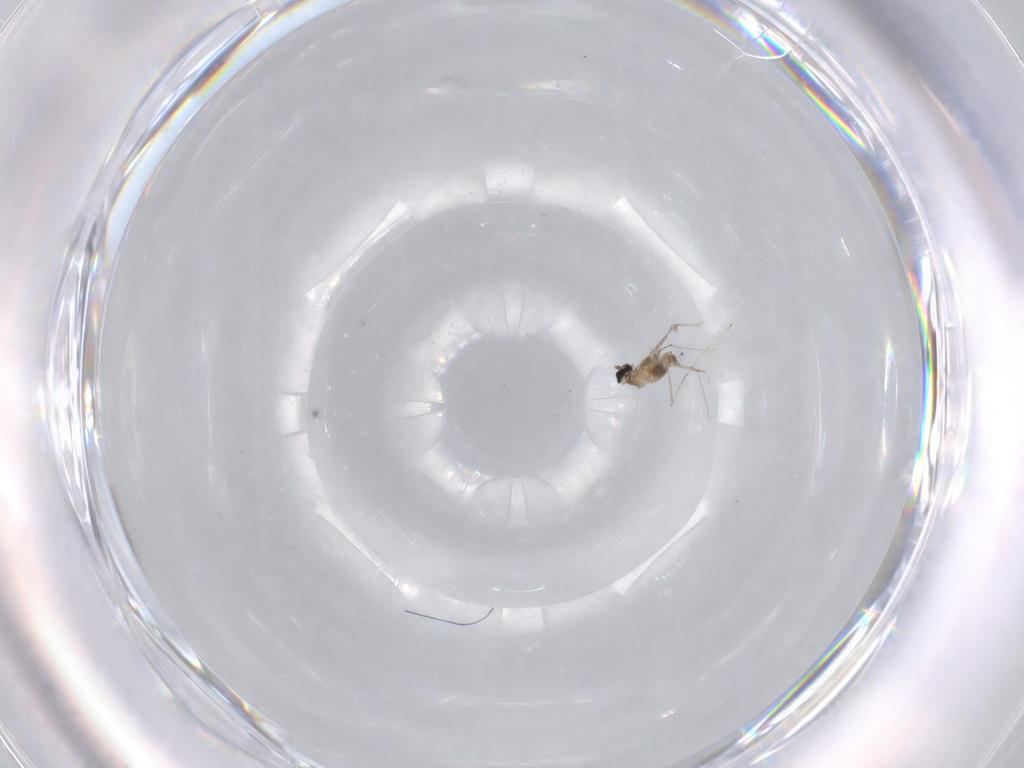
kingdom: Animalia
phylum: Arthropoda
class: Insecta
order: Diptera
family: Cecidomyiidae
